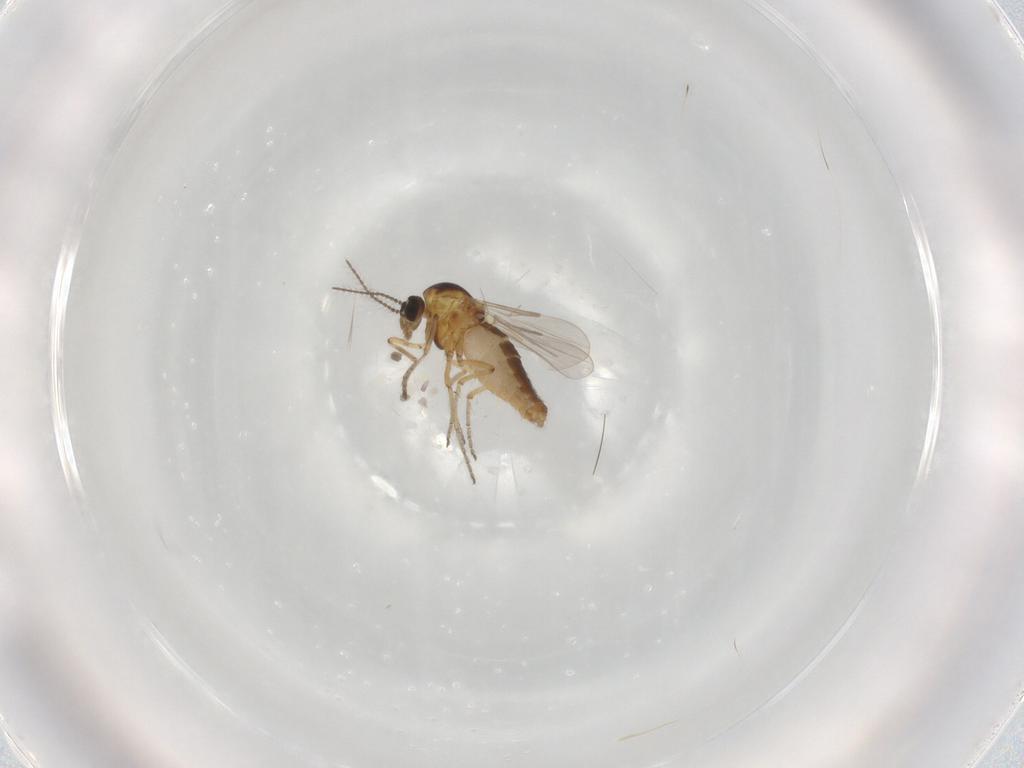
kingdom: Animalia
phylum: Arthropoda
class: Insecta
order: Diptera
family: Ceratopogonidae
